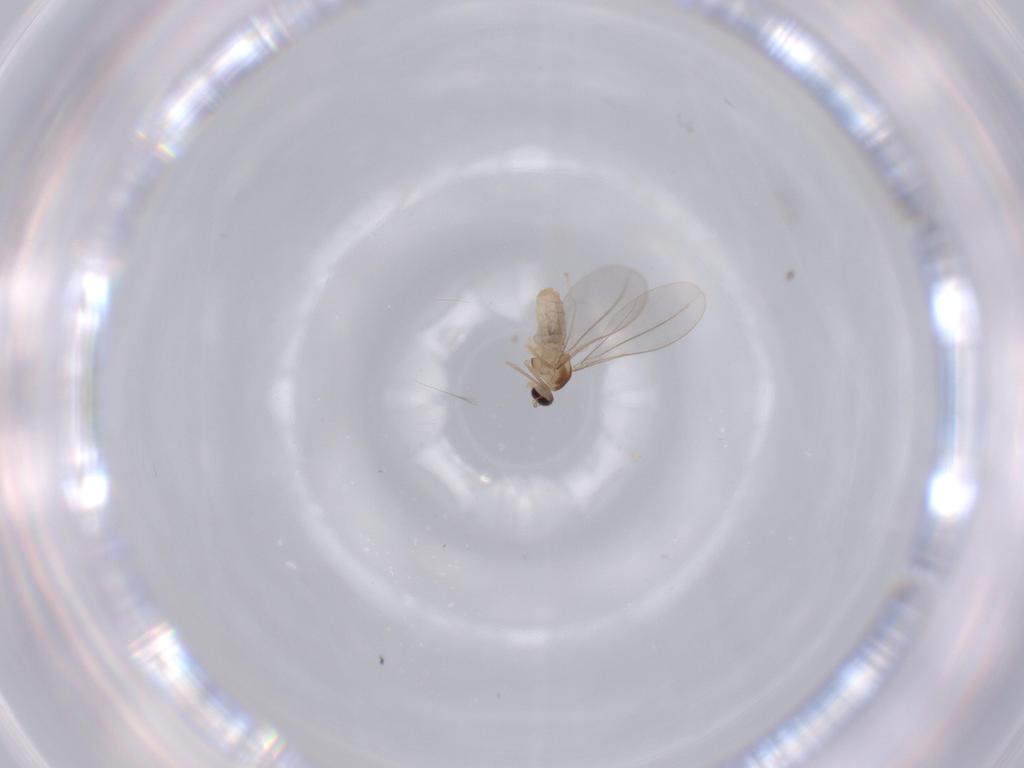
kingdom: Animalia
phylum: Arthropoda
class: Insecta
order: Diptera
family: Cecidomyiidae
